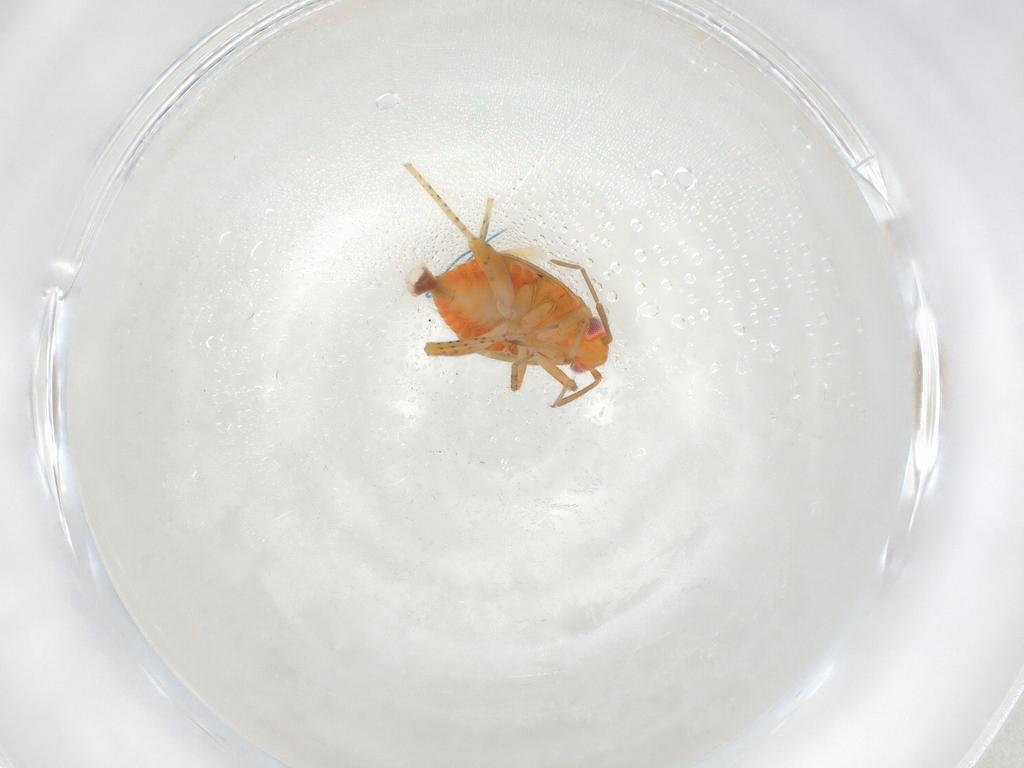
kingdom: Animalia
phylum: Arthropoda
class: Insecta
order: Hemiptera
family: Miridae
